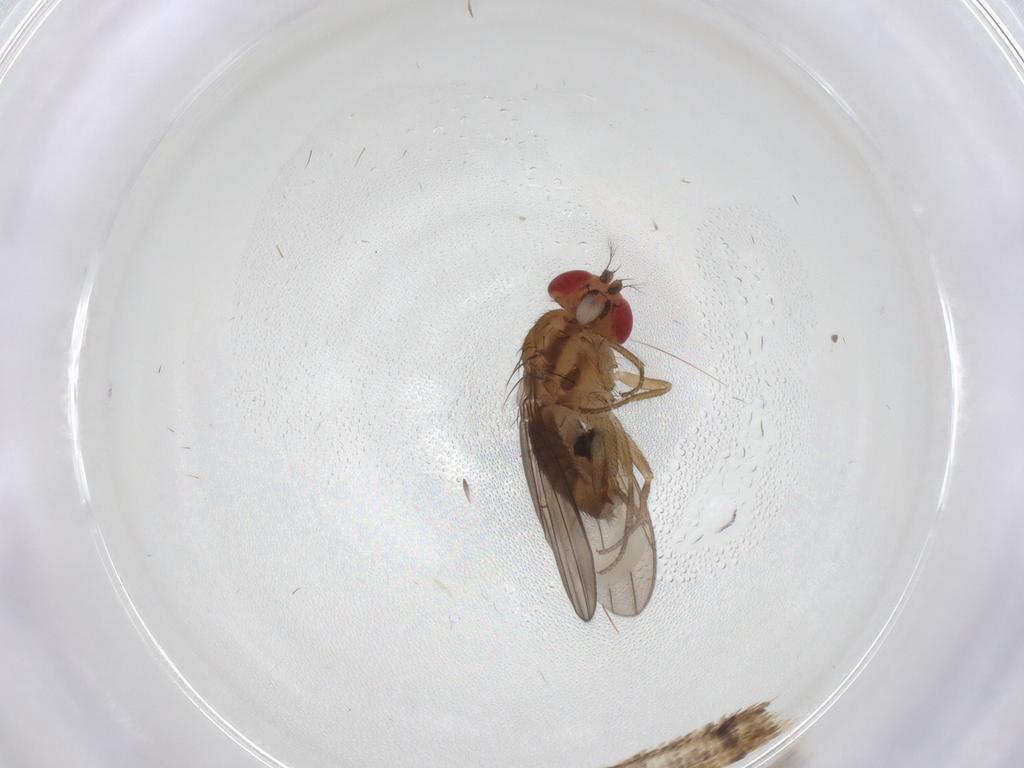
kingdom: Animalia
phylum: Arthropoda
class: Insecta
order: Diptera
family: Drosophilidae
